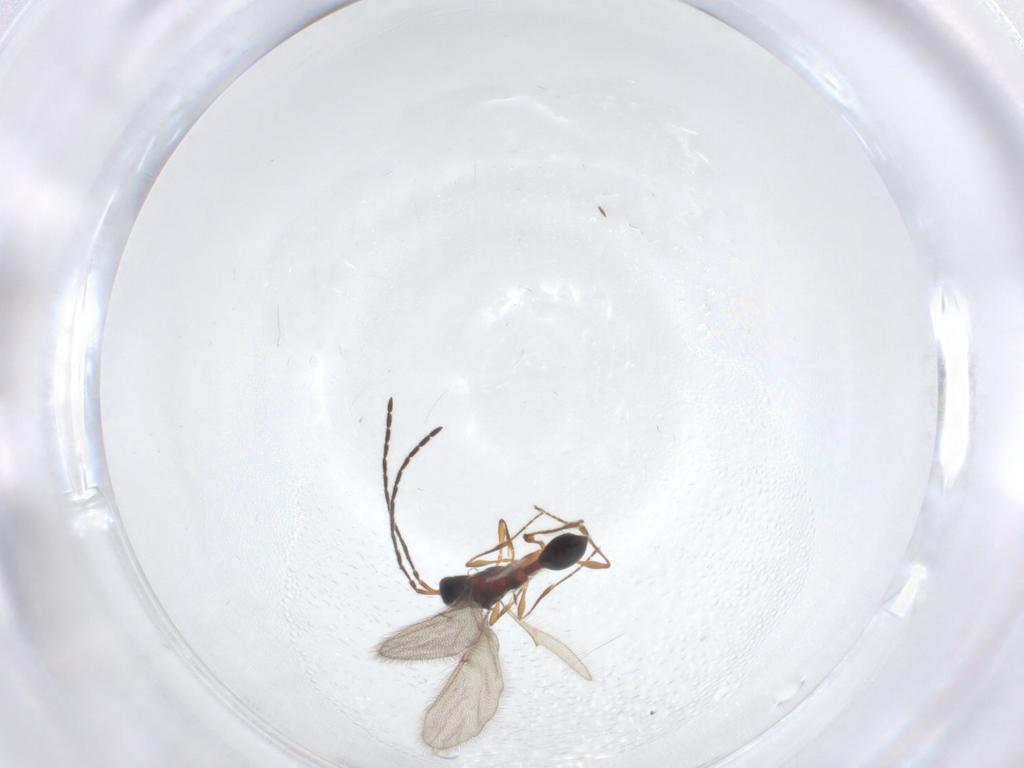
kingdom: Animalia
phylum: Arthropoda
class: Insecta
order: Hymenoptera
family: Diapriidae
